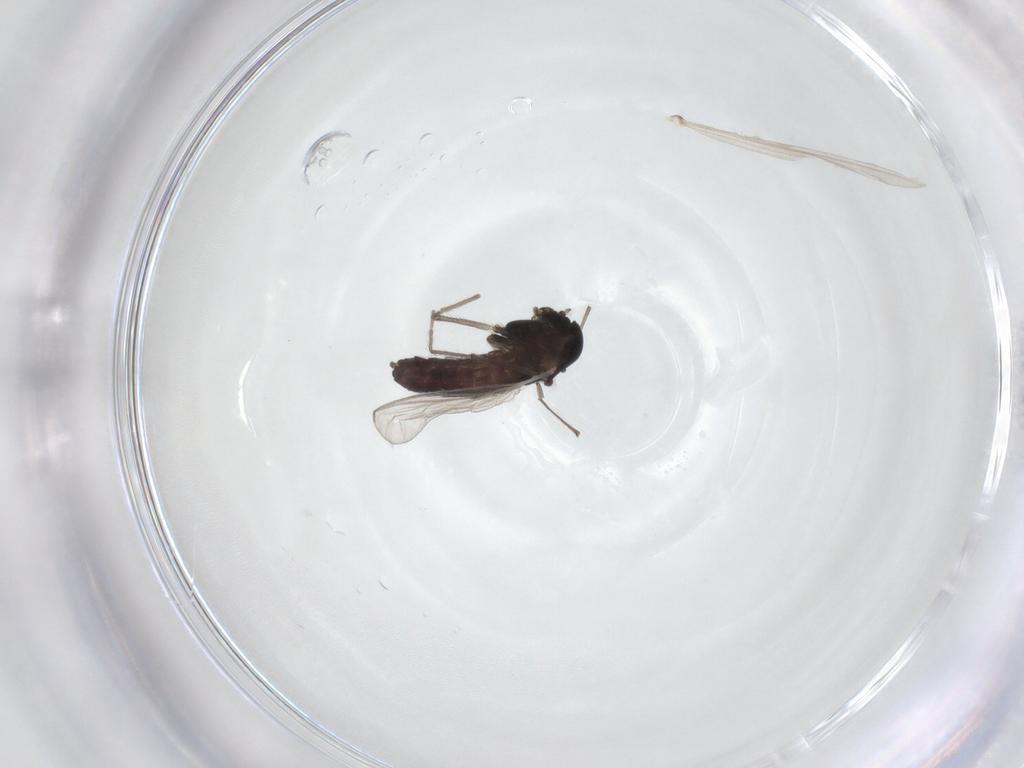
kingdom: Animalia
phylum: Arthropoda
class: Insecta
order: Diptera
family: Chironomidae
